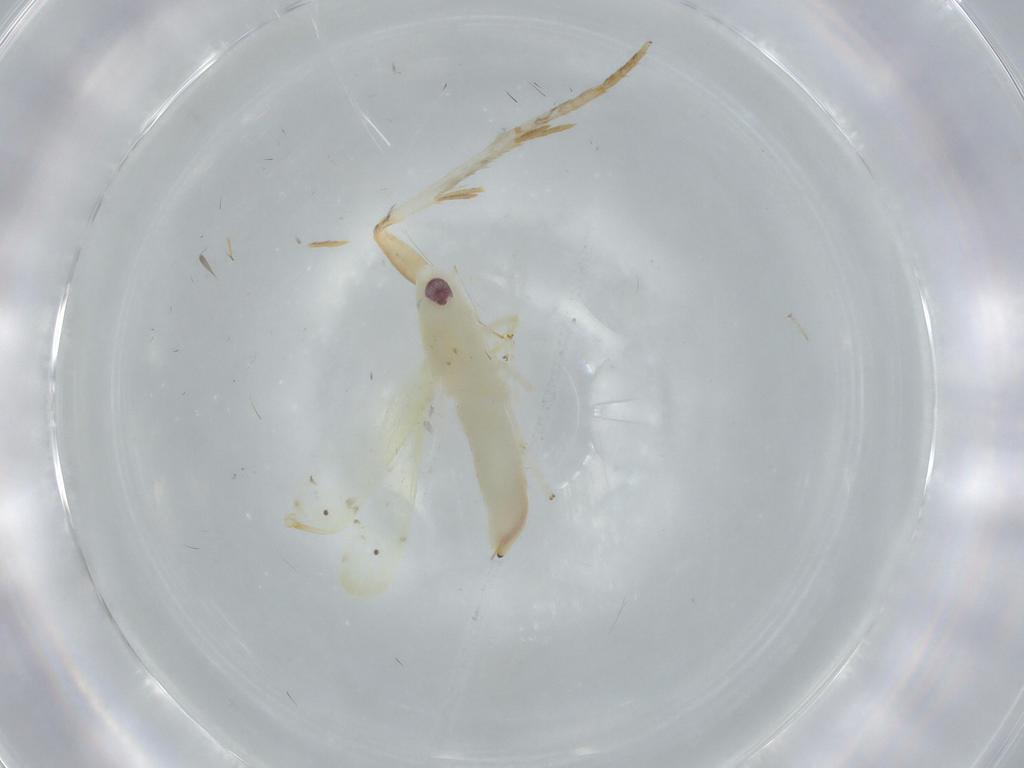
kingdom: Animalia
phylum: Arthropoda
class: Insecta
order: Hemiptera
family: Cicadellidae
